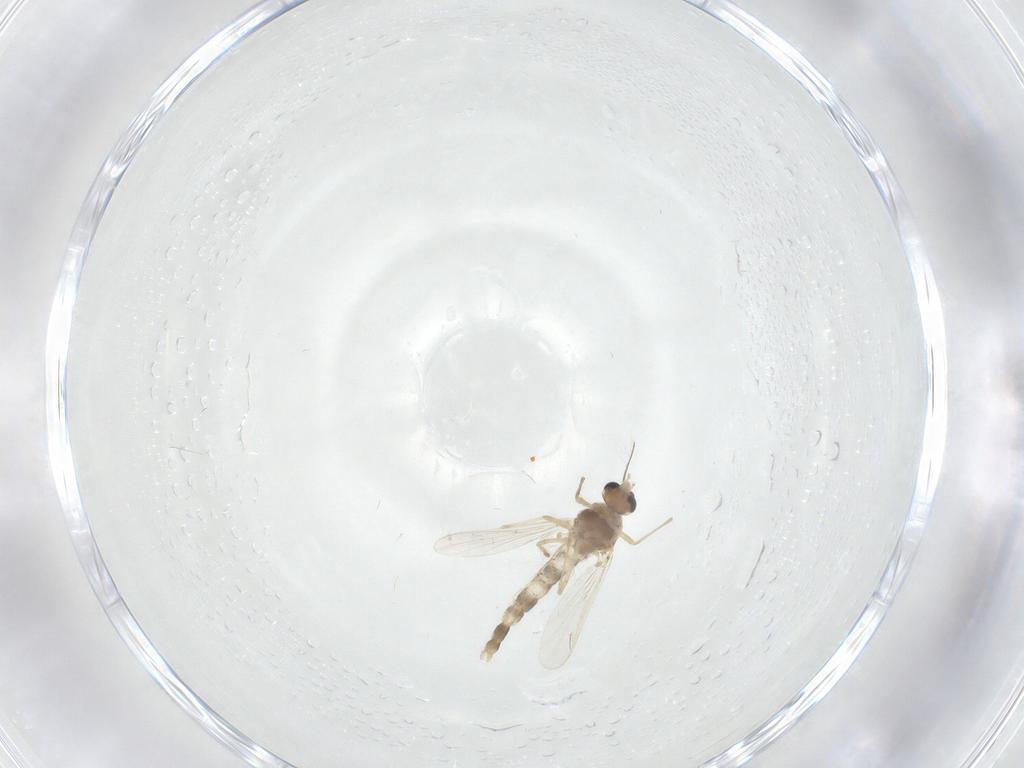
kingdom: Animalia
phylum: Arthropoda
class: Insecta
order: Diptera
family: Chironomidae
